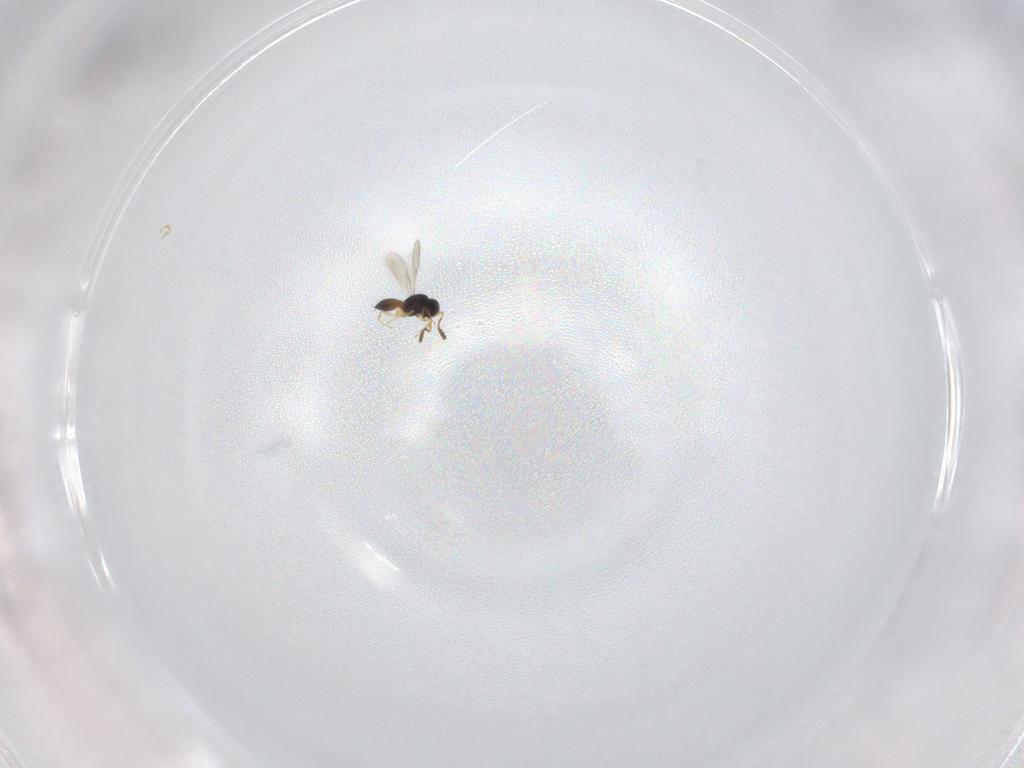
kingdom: Animalia
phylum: Arthropoda
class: Insecta
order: Hymenoptera
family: Scelionidae
